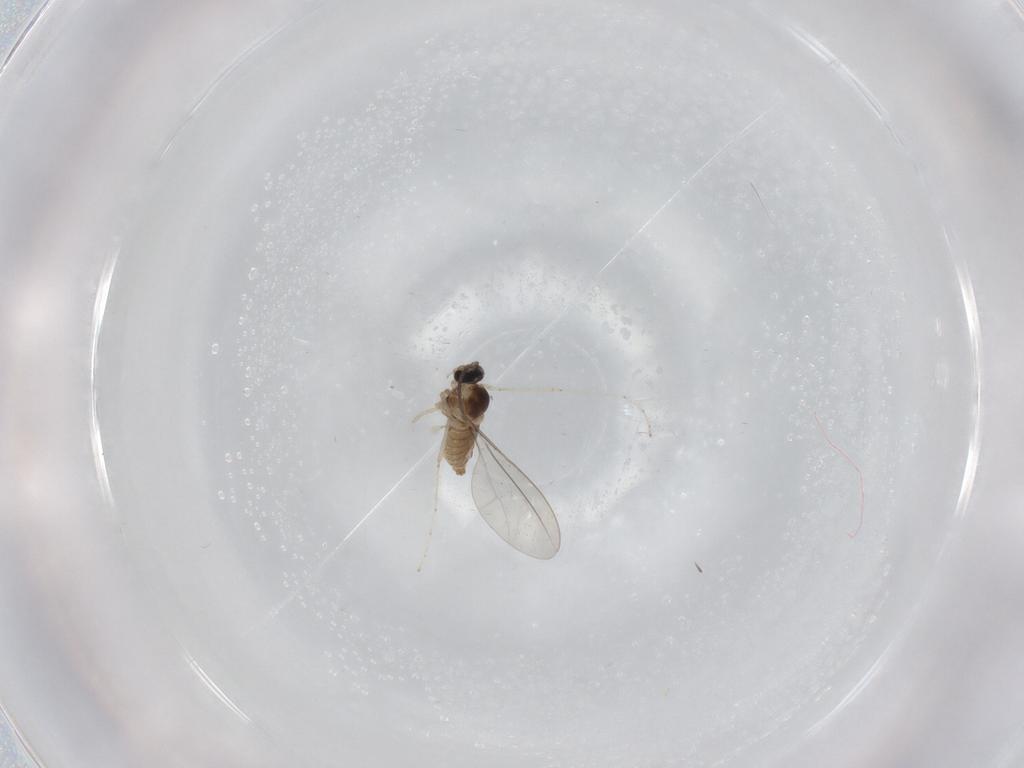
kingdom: Animalia
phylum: Arthropoda
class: Insecta
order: Diptera
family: Cecidomyiidae
